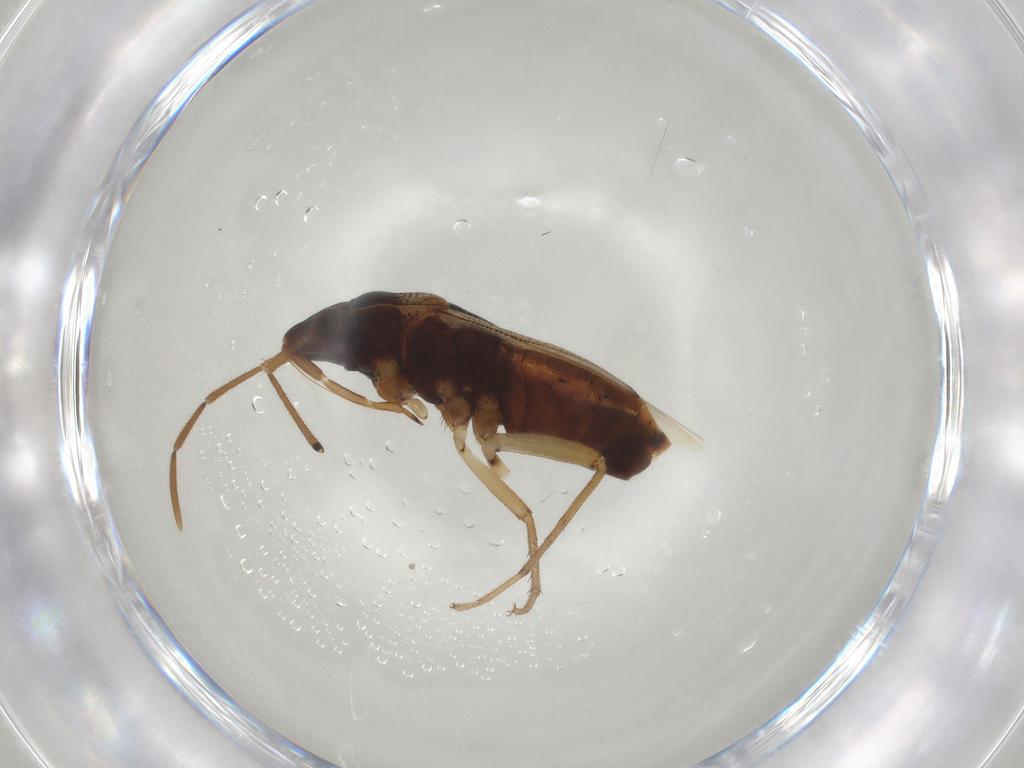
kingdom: Animalia
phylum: Arthropoda
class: Insecta
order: Hemiptera
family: Rhyparochromidae
